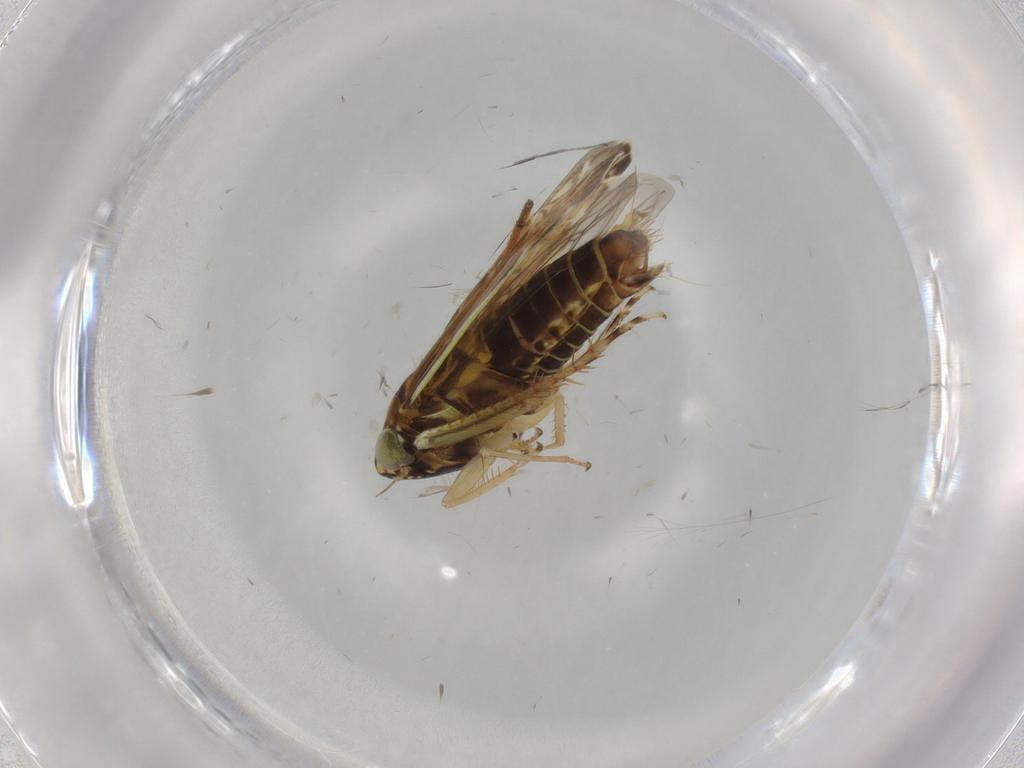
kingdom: Animalia
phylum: Arthropoda
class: Insecta
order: Hemiptera
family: Cicadellidae
